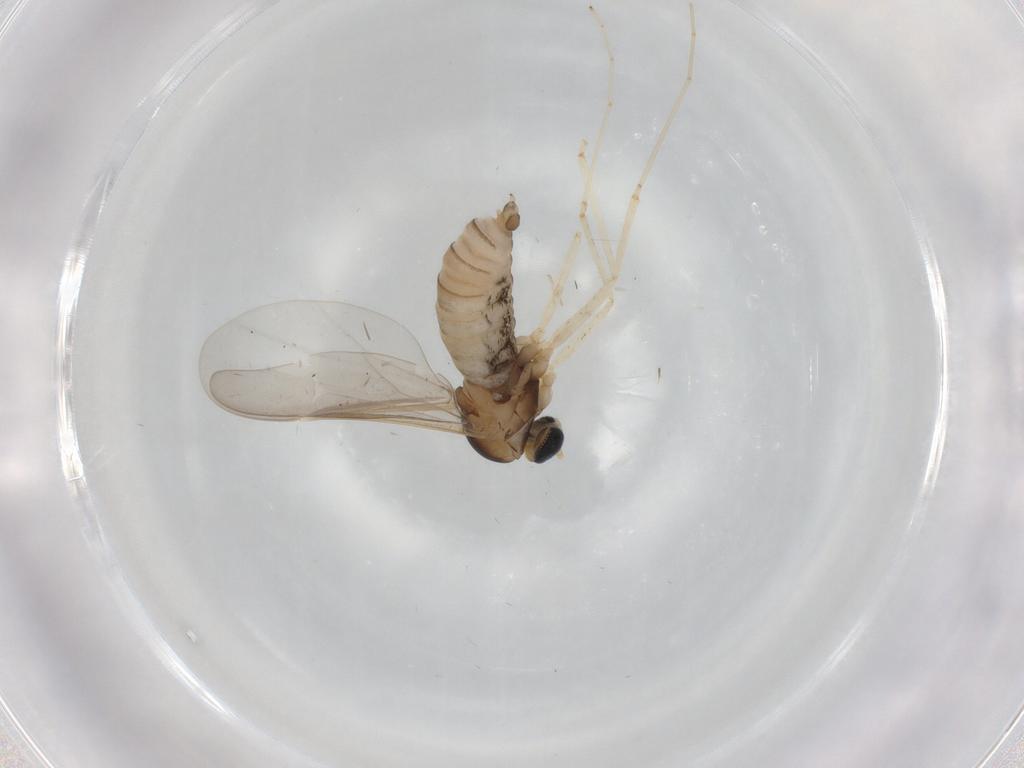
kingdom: Animalia
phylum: Arthropoda
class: Insecta
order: Diptera
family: Cecidomyiidae
